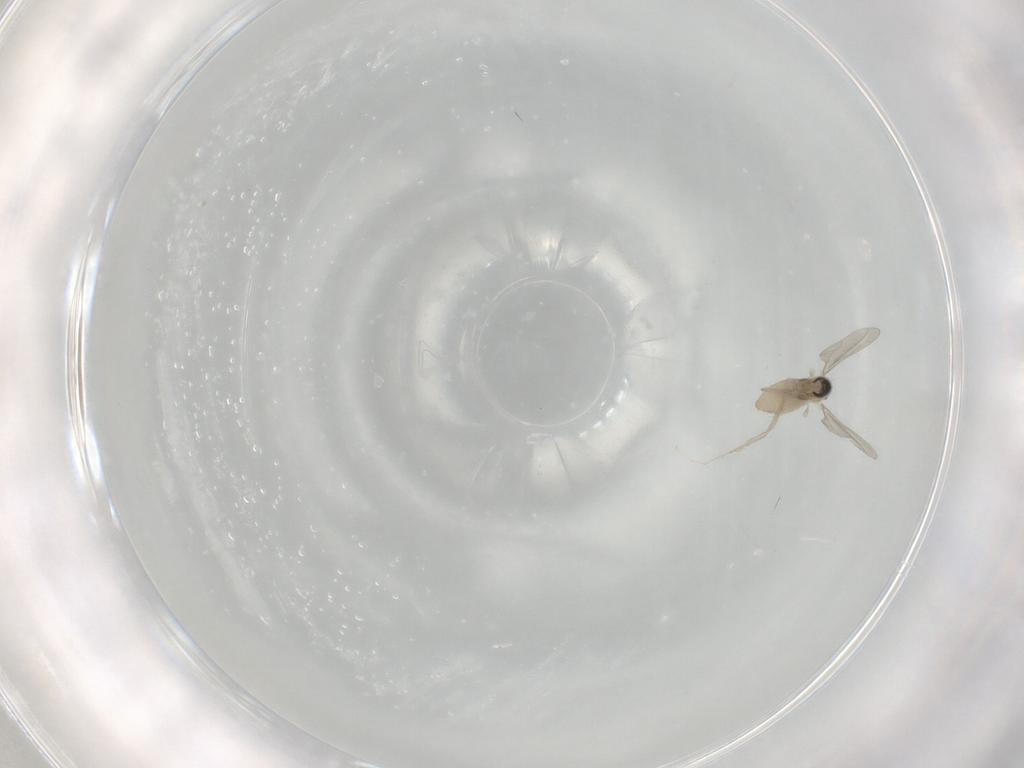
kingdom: Animalia
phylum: Arthropoda
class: Insecta
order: Diptera
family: Cecidomyiidae
